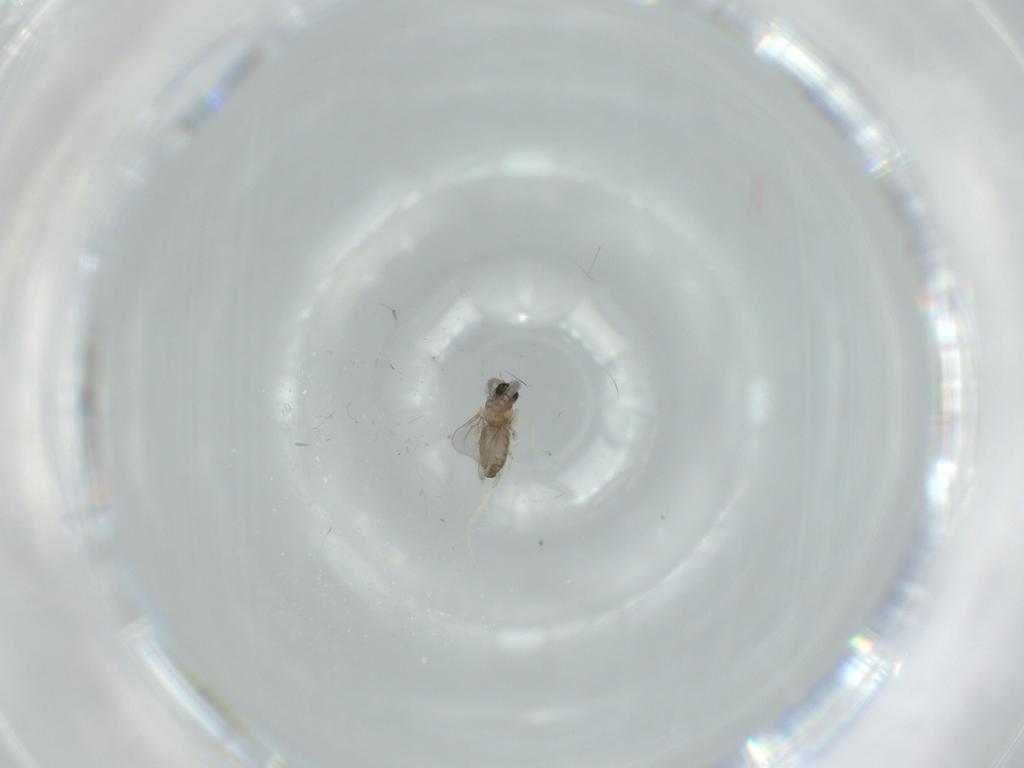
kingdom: Animalia
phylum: Arthropoda
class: Insecta
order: Diptera
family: Cecidomyiidae
